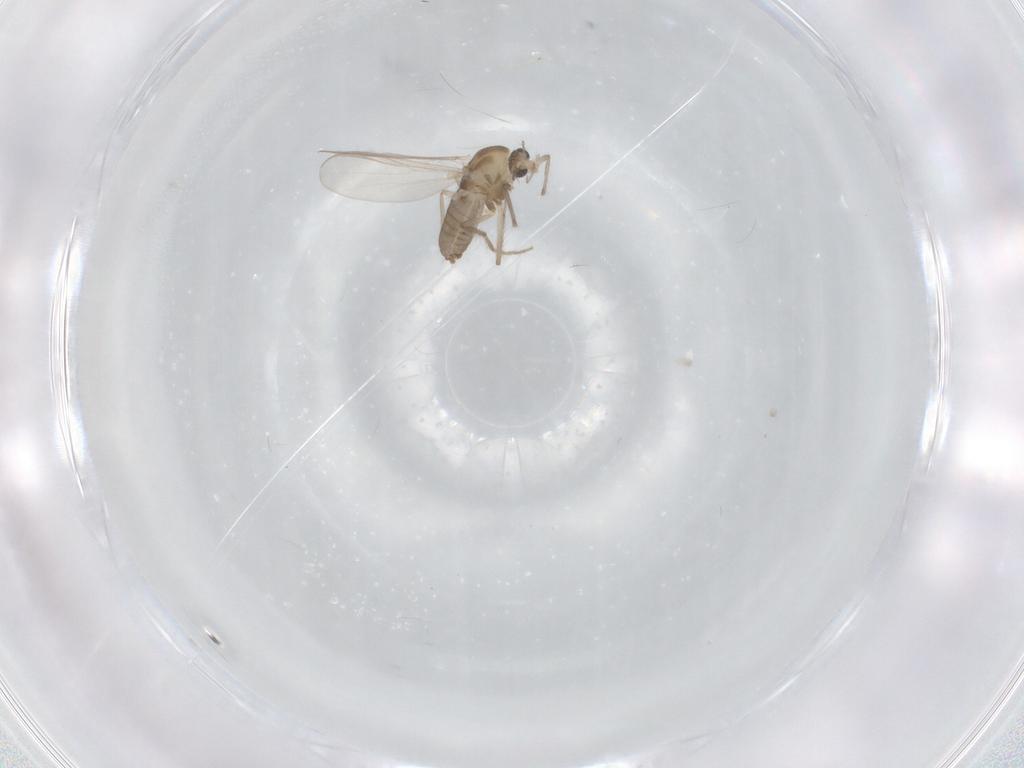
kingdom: Animalia
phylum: Arthropoda
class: Insecta
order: Diptera
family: Chironomidae
